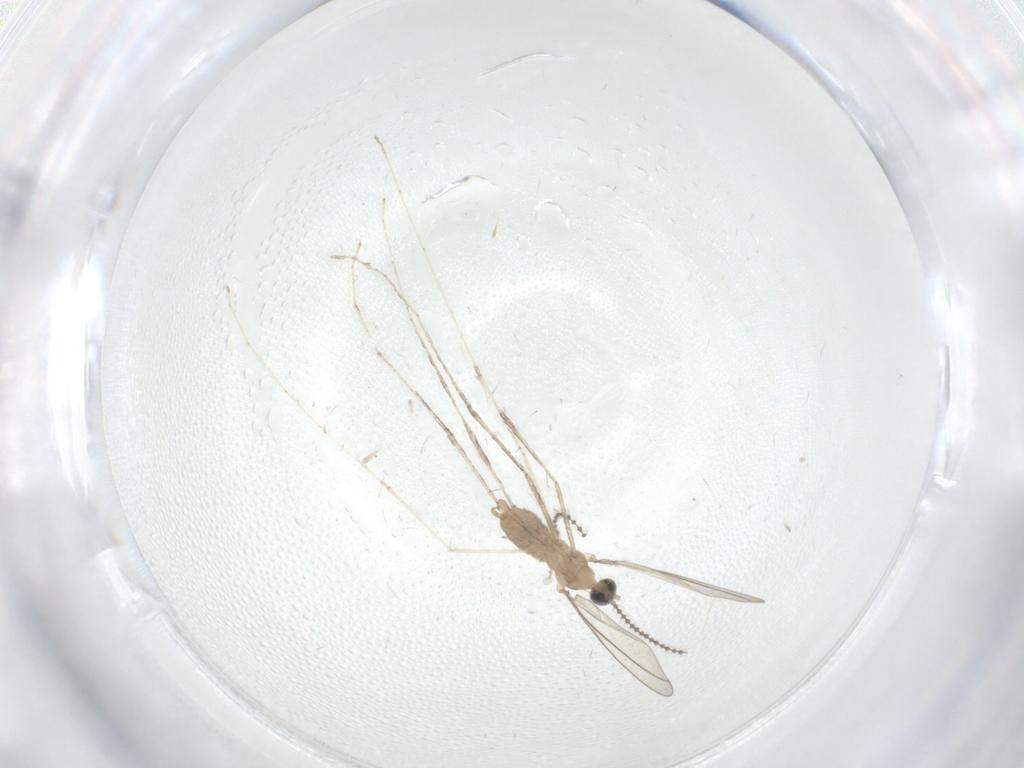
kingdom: Animalia
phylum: Arthropoda
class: Insecta
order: Diptera
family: Cecidomyiidae
